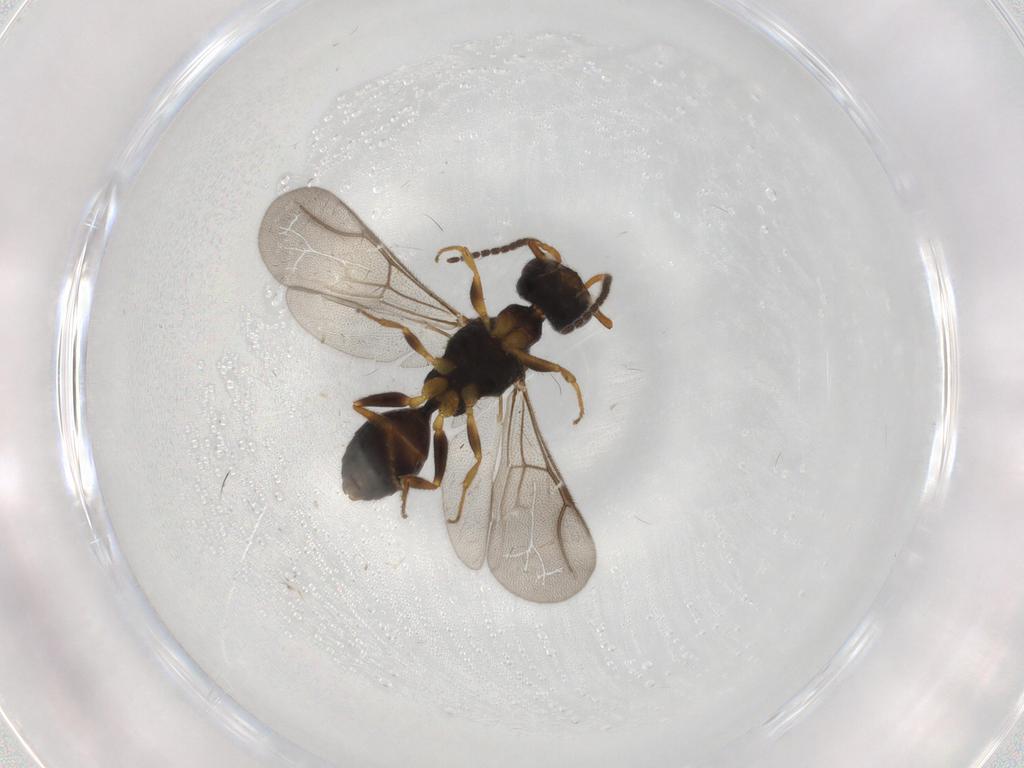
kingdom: Animalia
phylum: Arthropoda
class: Insecta
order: Hymenoptera
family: Bethylidae
